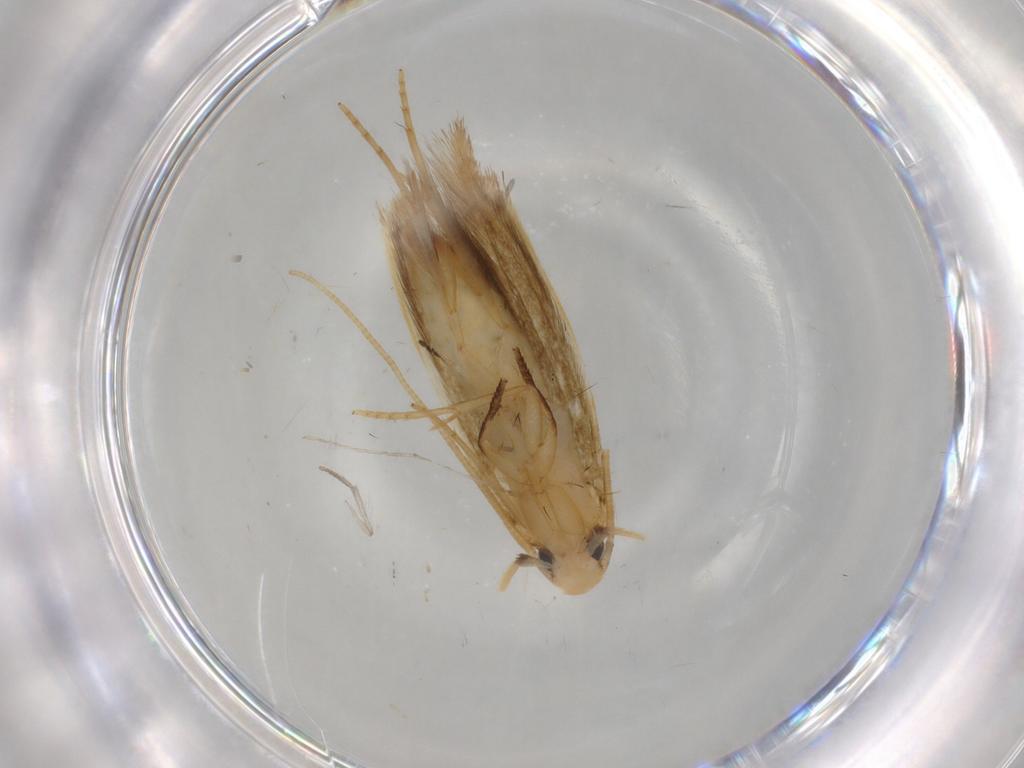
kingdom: Animalia
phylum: Arthropoda
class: Insecta
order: Lepidoptera
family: Tineidae
